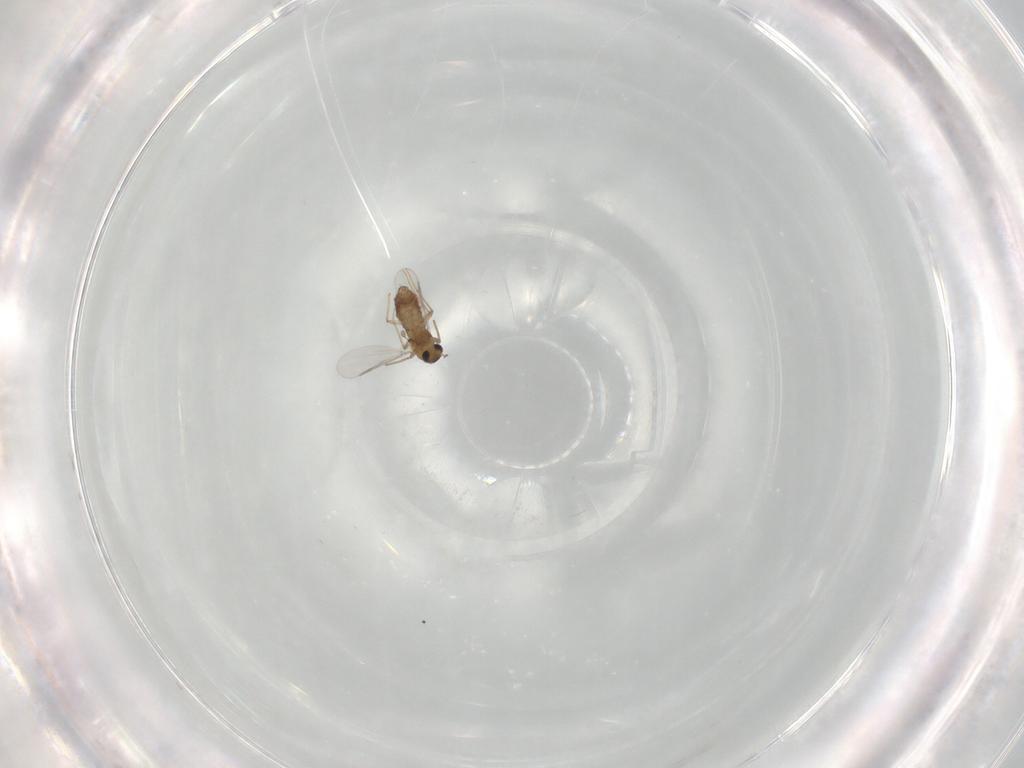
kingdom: Animalia
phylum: Arthropoda
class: Insecta
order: Diptera
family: Chironomidae
